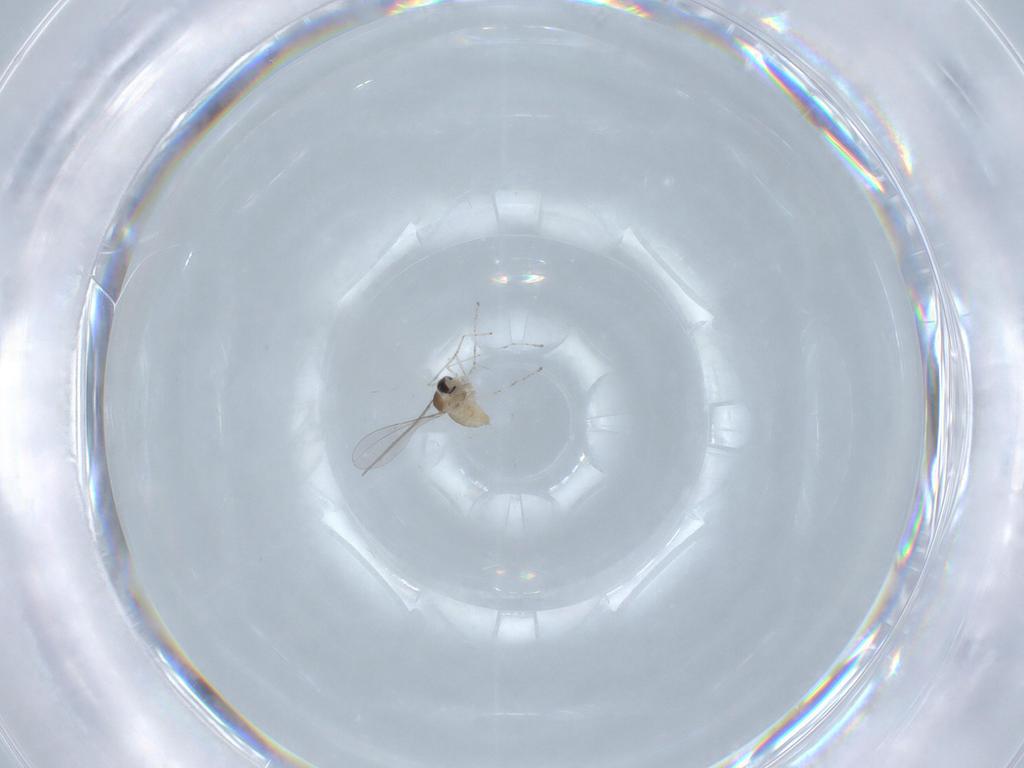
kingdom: Animalia
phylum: Arthropoda
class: Insecta
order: Diptera
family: Cecidomyiidae
